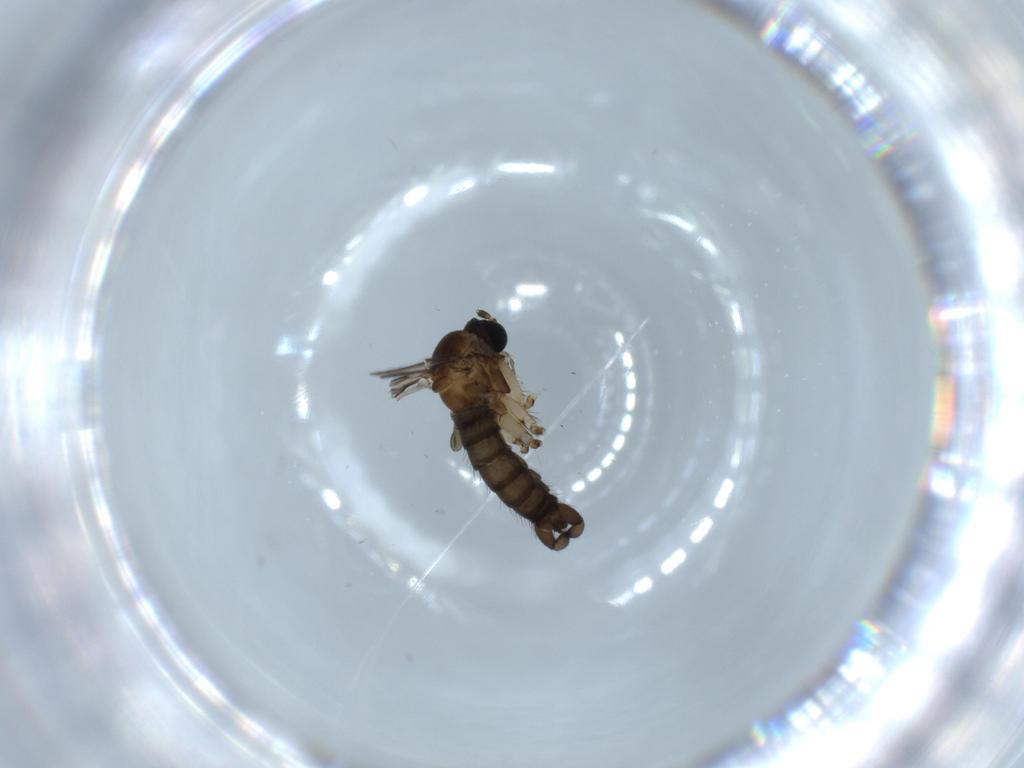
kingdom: Animalia
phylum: Arthropoda
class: Insecta
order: Diptera
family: Sciaridae
